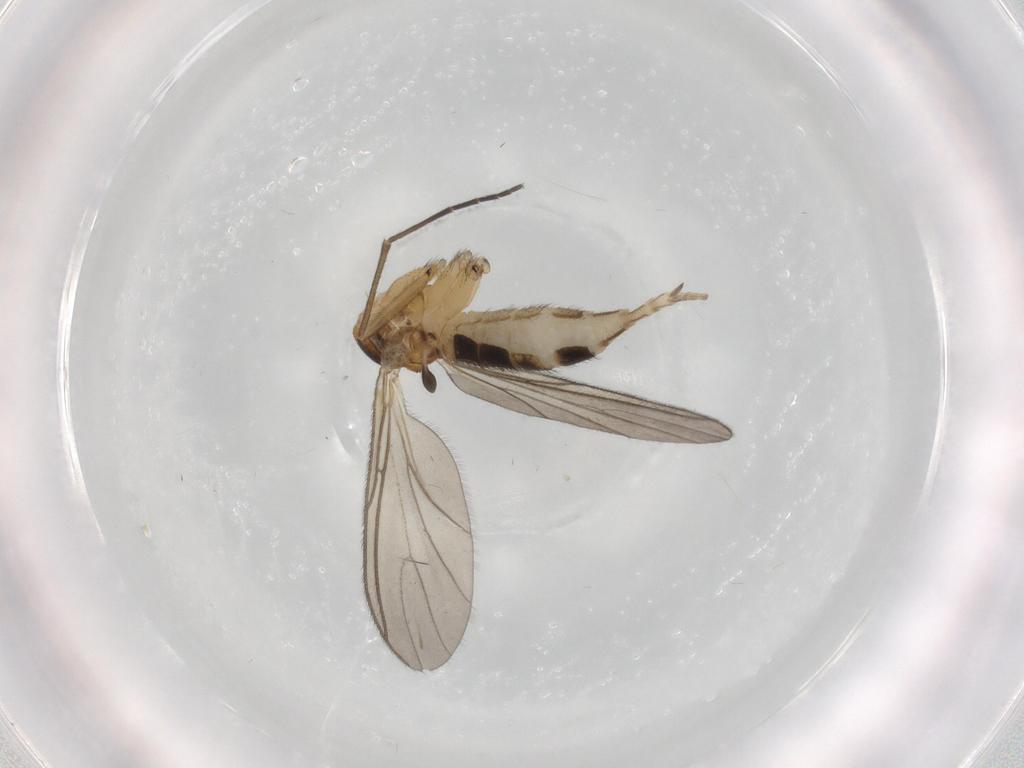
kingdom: Animalia
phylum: Arthropoda
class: Insecta
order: Diptera
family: Sciaridae
